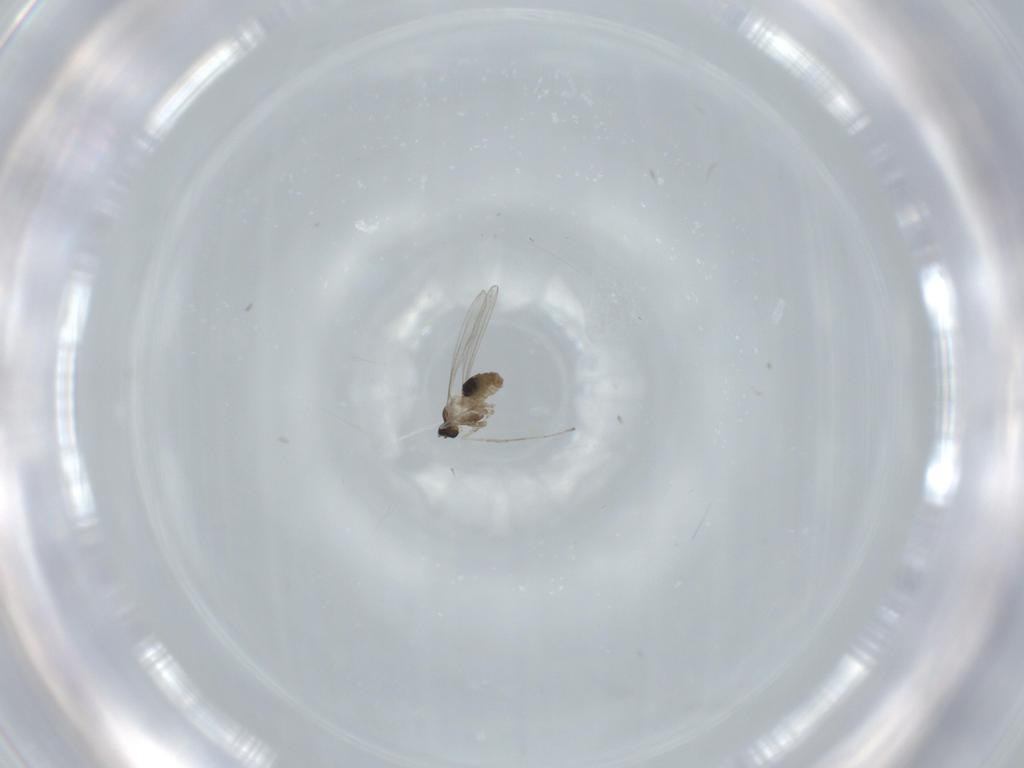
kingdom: Animalia
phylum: Arthropoda
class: Insecta
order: Diptera
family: Cecidomyiidae
